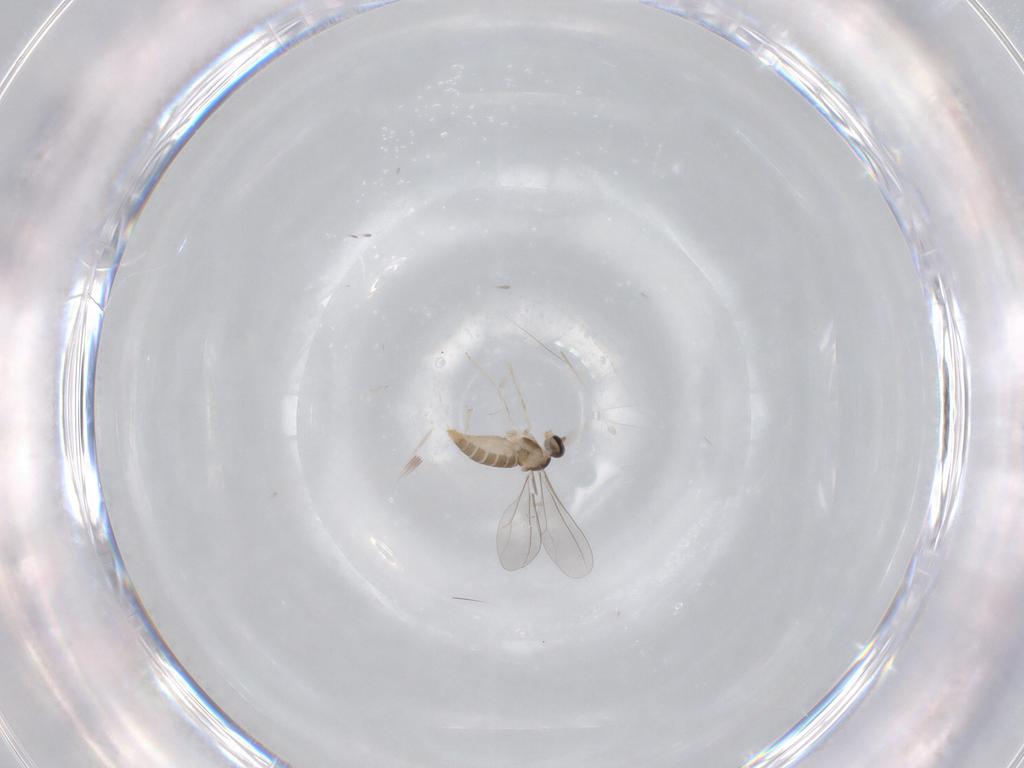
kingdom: Animalia
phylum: Arthropoda
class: Insecta
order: Diptera
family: Cecidomyiidae
